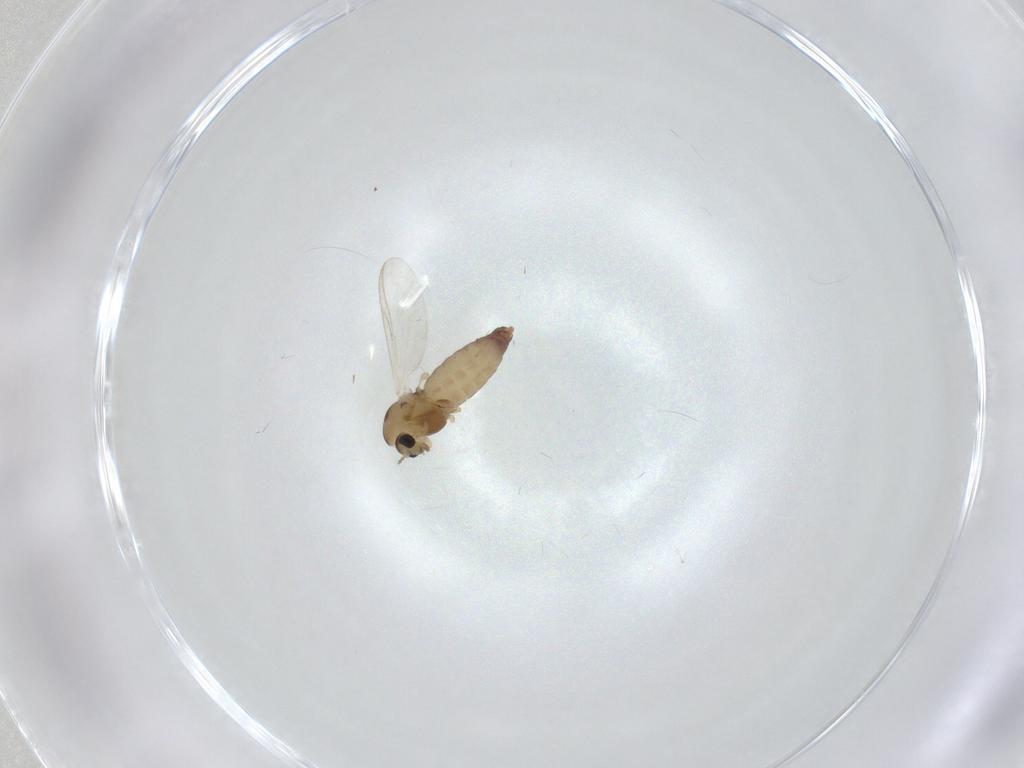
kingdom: Animalia
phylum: Arthropoda
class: Insecta
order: Diptera
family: Chironomidae
